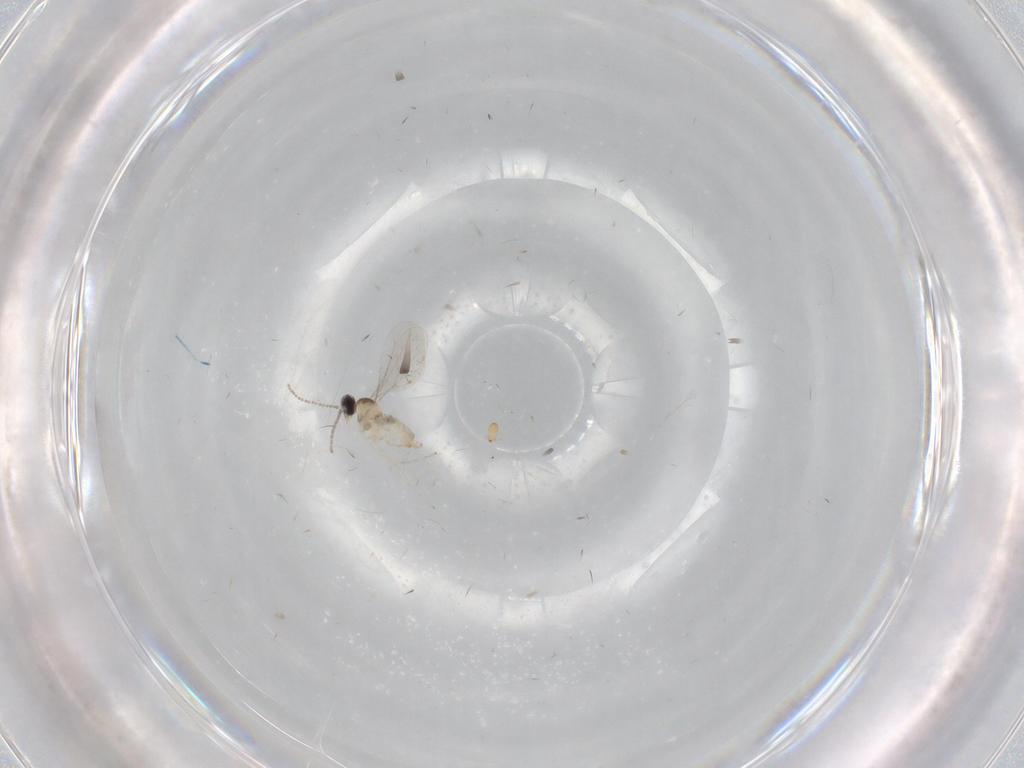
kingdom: Animalia
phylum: Arthropoda
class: Insecta
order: Diptera
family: Cecidomyiidae
